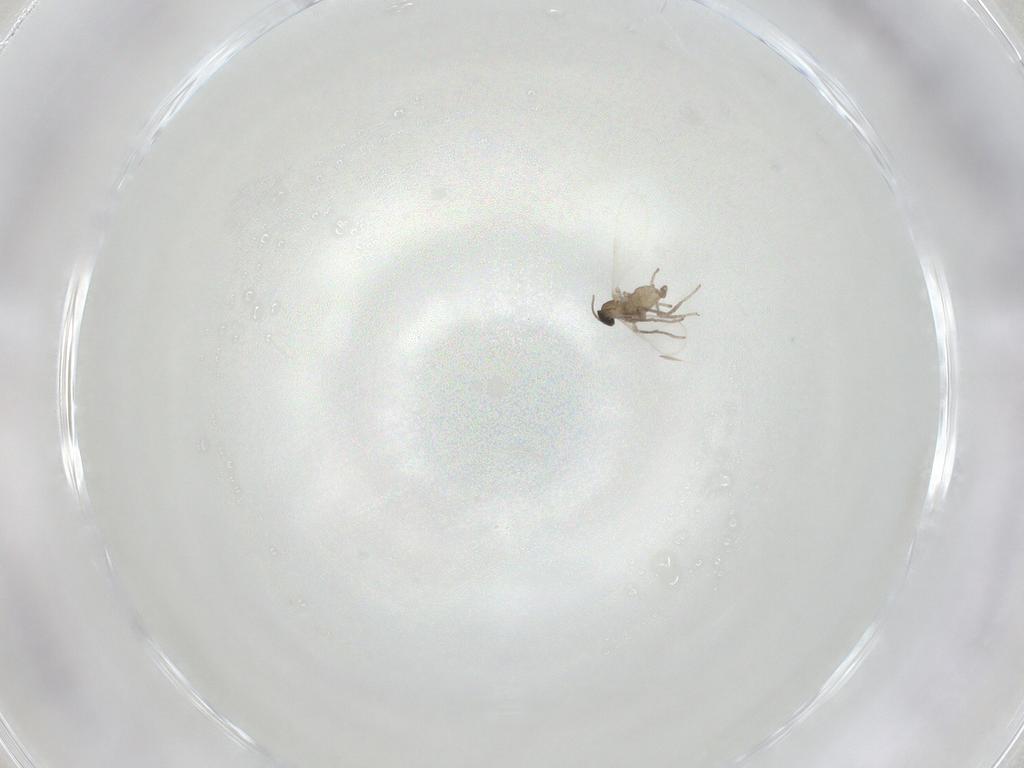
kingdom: Animalia
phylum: Arthropoda
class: Insecta
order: Diptera
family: Cecidomyiidae
